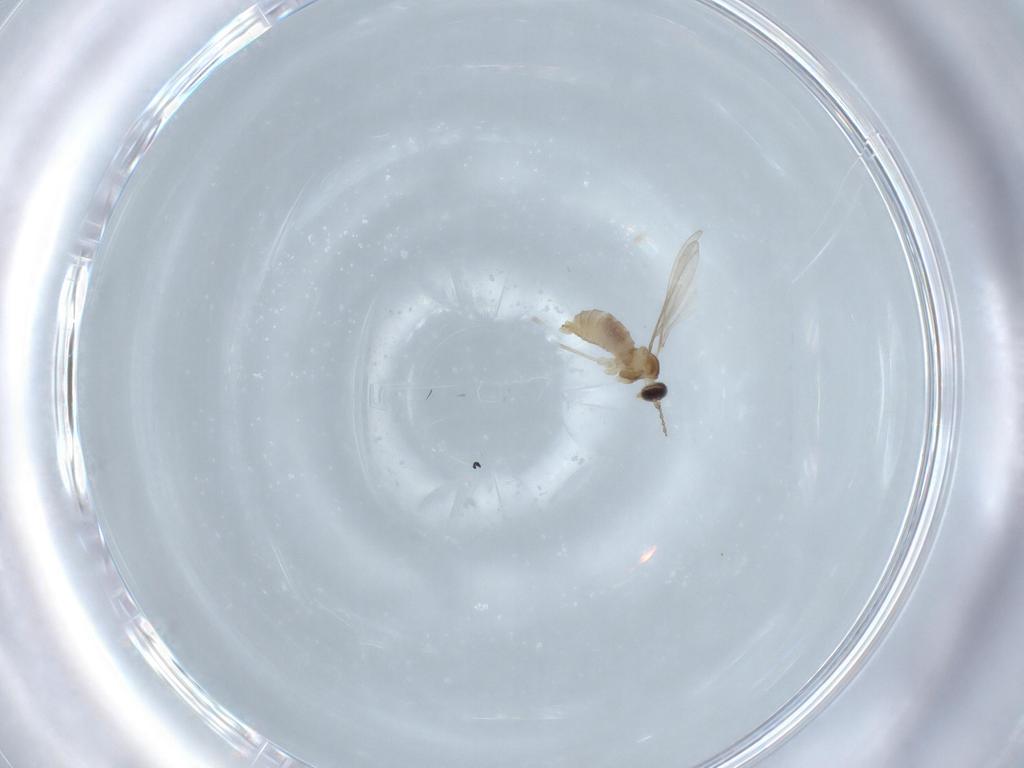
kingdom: Animalia
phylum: Arthropoda
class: Insecta
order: Diptera
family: Cecidomyiidae
